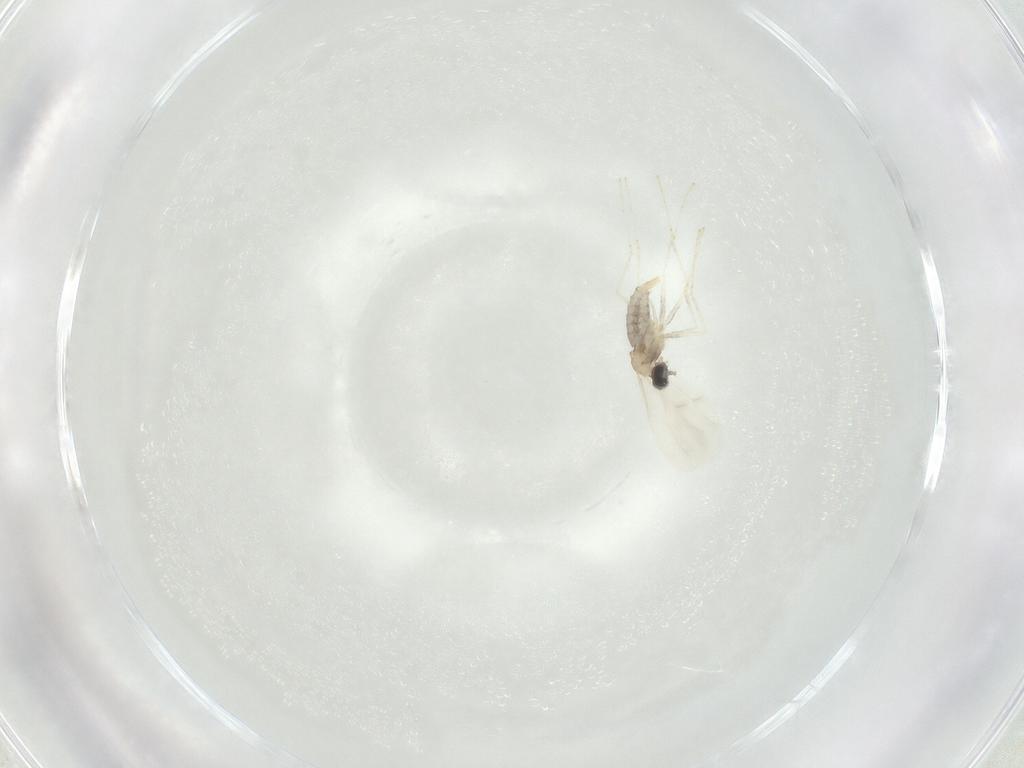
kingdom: Animalia
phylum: Arthropoda
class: Insecta
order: Diptera
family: Cecidomyiidae
